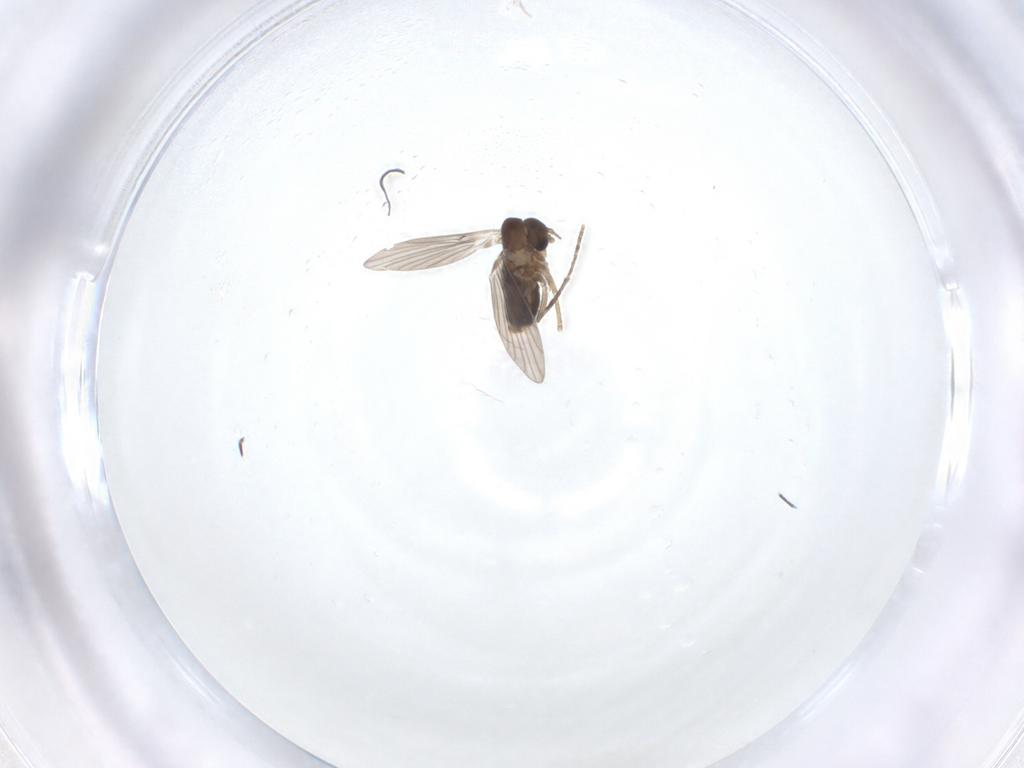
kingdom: Animalia
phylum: Arthropoda
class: Insecta
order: Diptera
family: Sphaeroceridae
